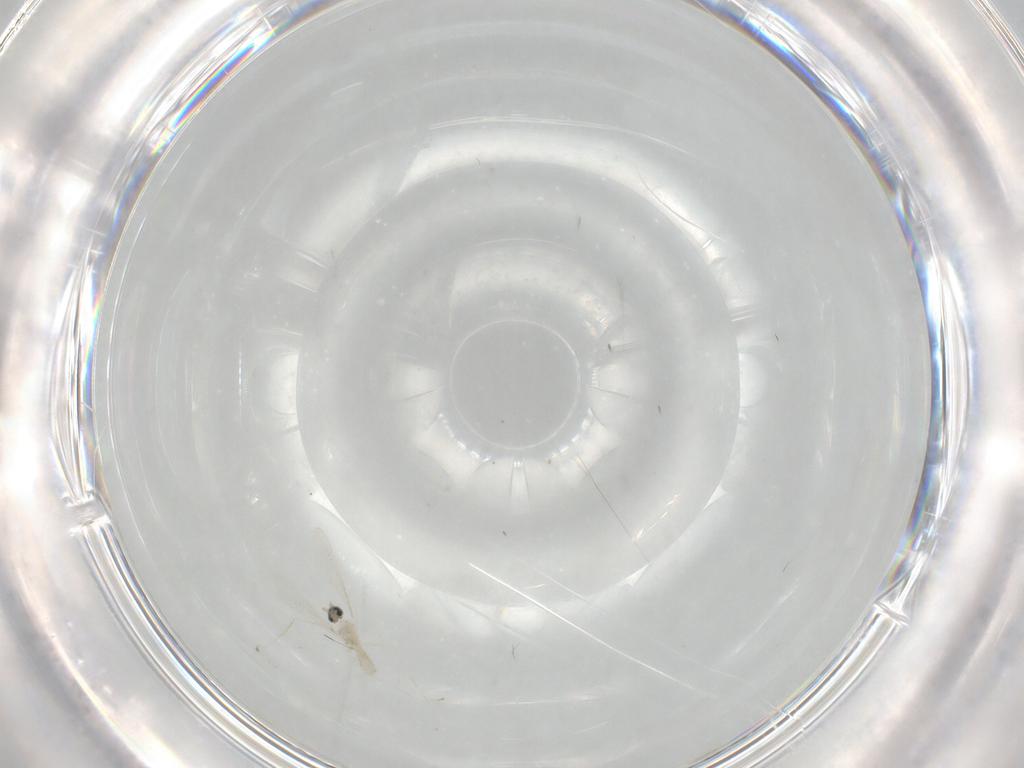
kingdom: Animalia
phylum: Arthropoda
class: Insecta
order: Diptera
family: Cecidomyiidae
